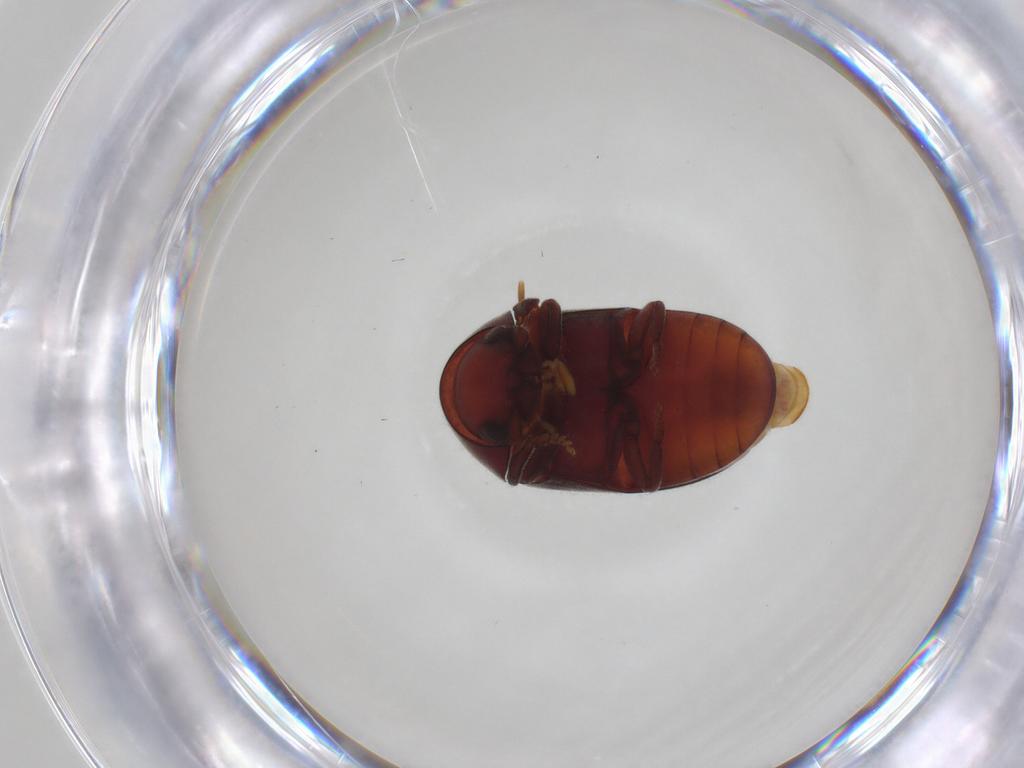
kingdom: Animalia
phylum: Arthropoda
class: Insecta
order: Coleoptera
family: Ptinidae
